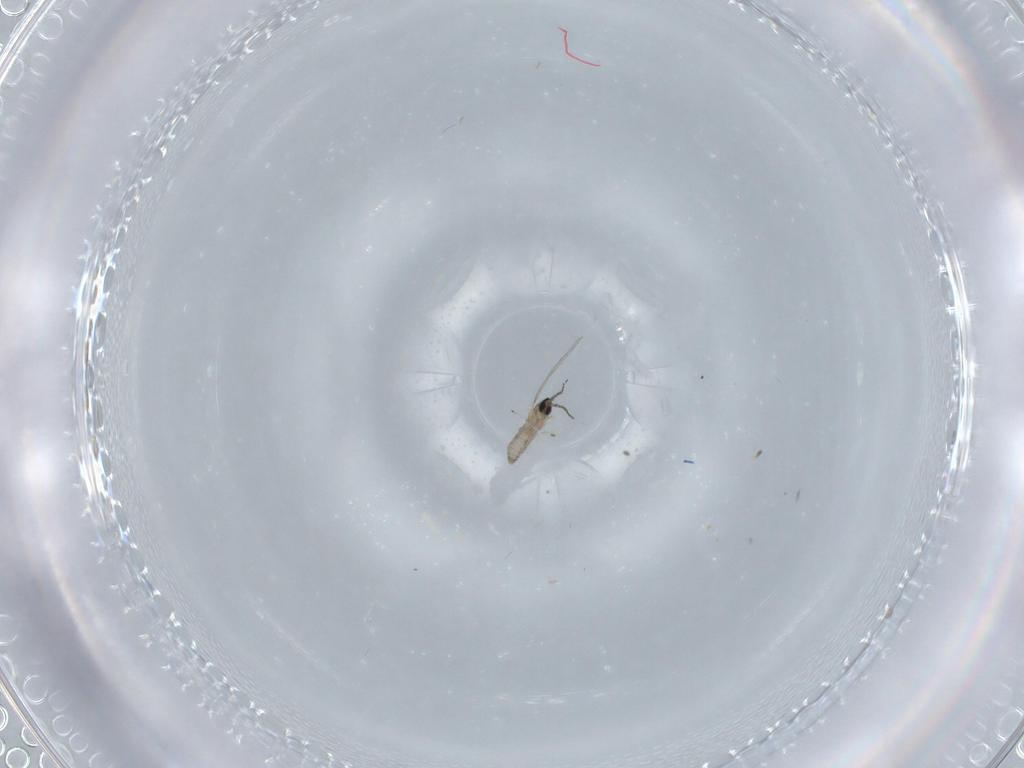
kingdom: Animalia
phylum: Arthropoda
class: Insecta
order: Diptera
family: Cecidomyiidae
